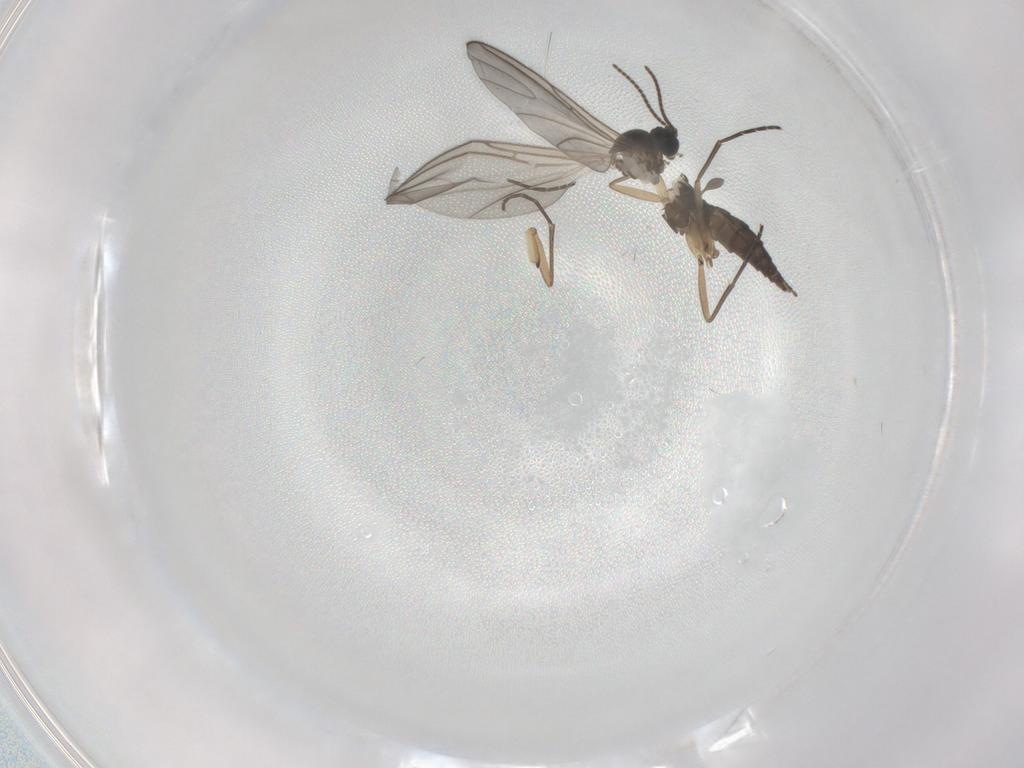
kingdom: Animalia
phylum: Arthropoda
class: Insecta
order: Diptera
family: Sciaridae
